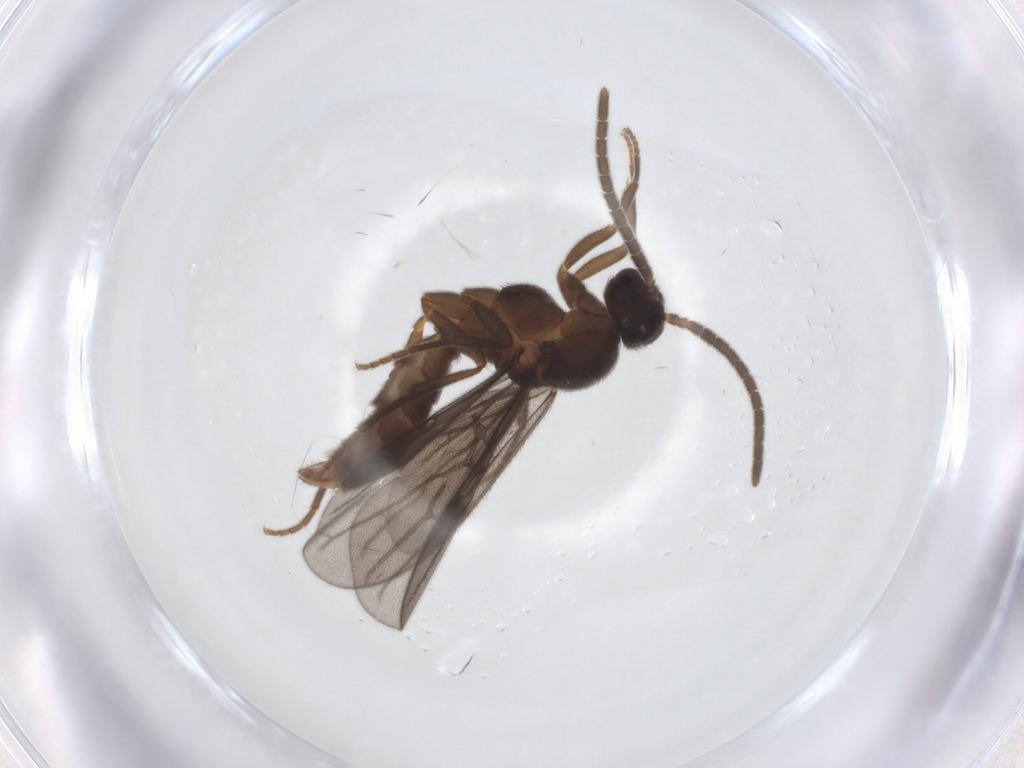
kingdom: Animalia
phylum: Arthropoda
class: Insecta
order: Hymenoptera
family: Formicidae
